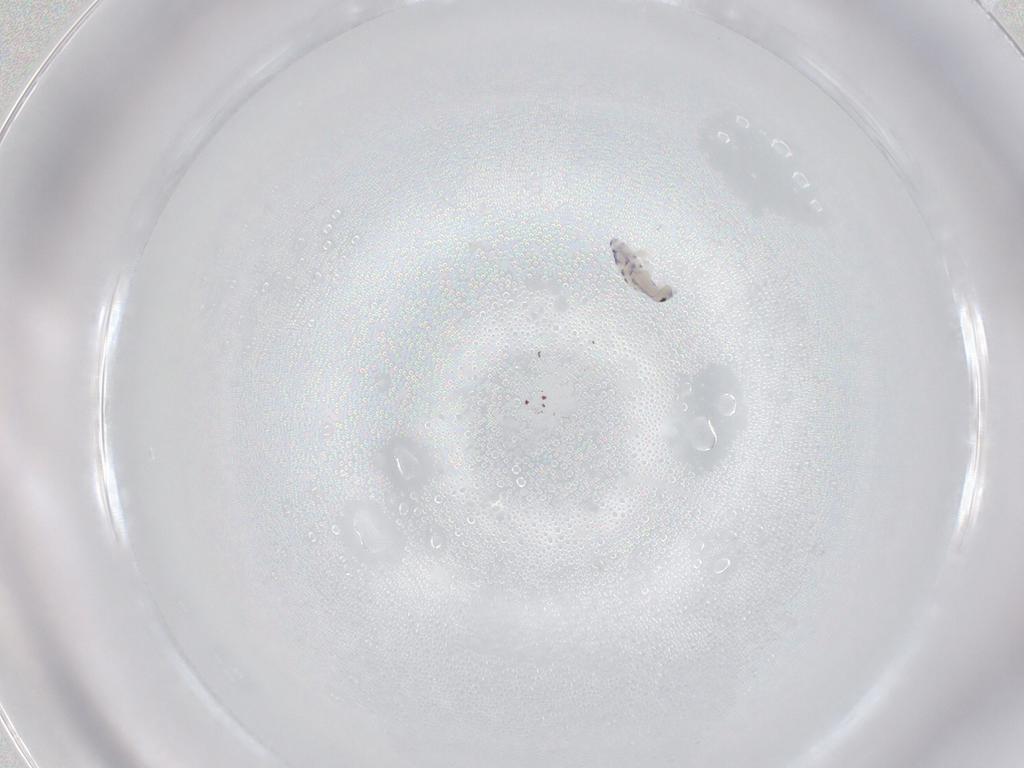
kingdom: Animalia
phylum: Arthropoda
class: Collembola
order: Entomobryomorpha
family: Entomobryidae
